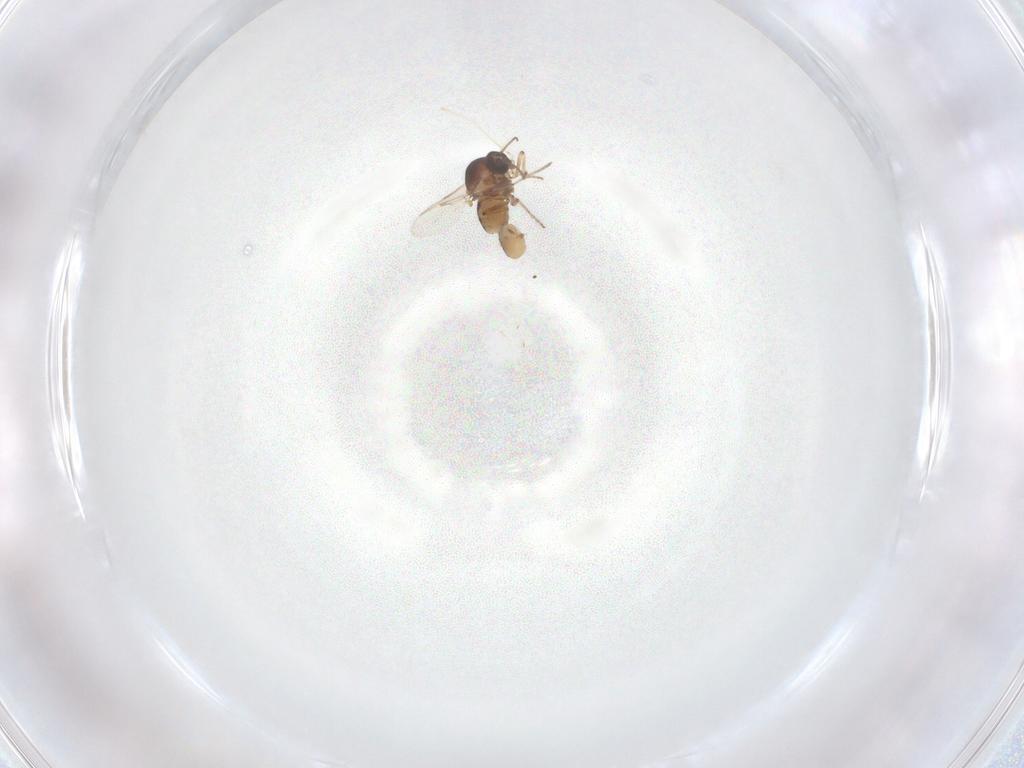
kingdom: Animalia
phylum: Arthropoda
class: Insecta
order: Diptera
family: Ceratopogonidae
